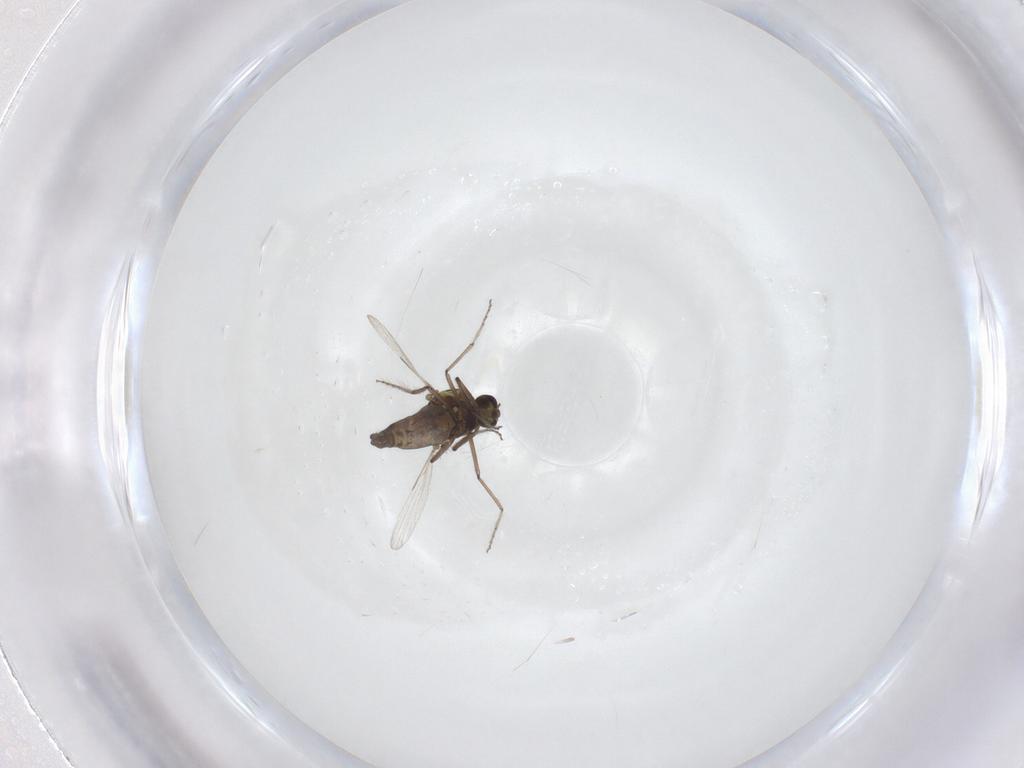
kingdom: Animalia
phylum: Arthropoda
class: Insecta
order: Diptera
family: Ceratopogonidae
